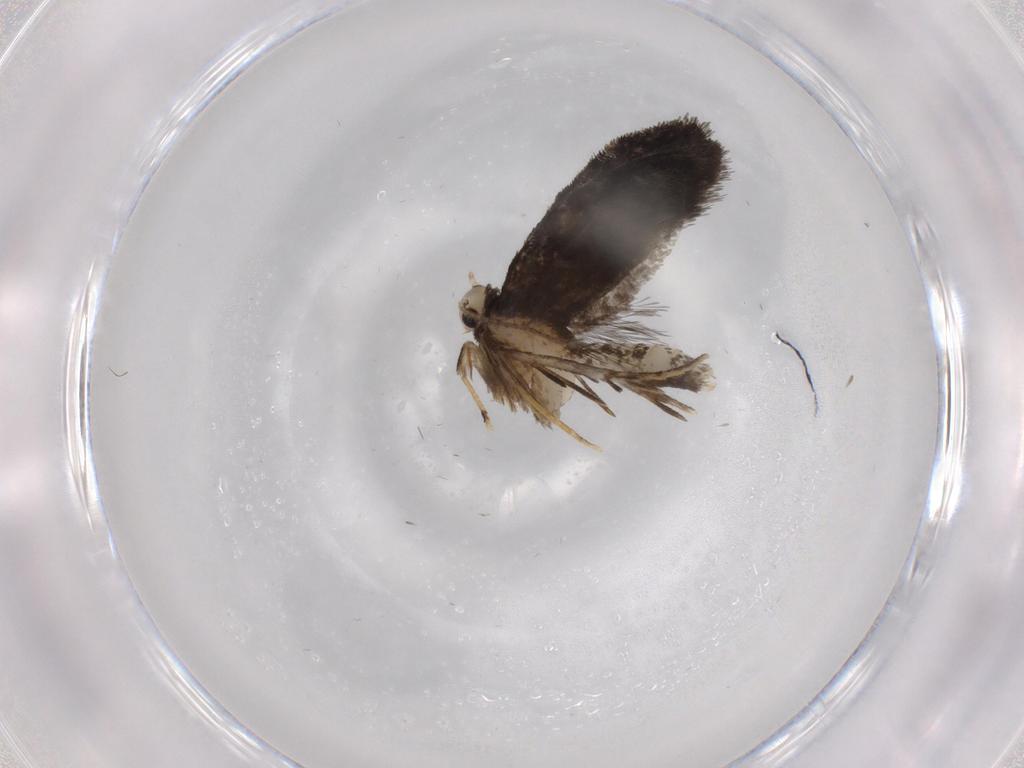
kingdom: Animalia
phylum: Arthropoda
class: Insecta
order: Lepidoptera
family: Psychidae
